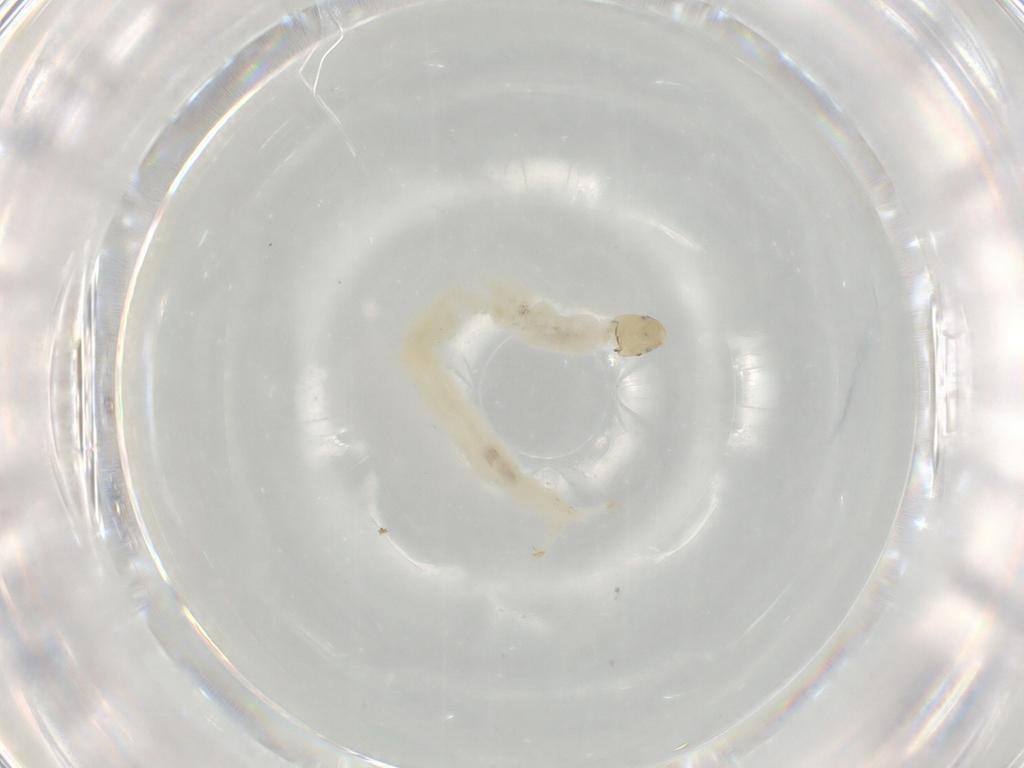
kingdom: Animalia
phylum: Arthropoda
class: Insecta
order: Diptera
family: Chironomidae
